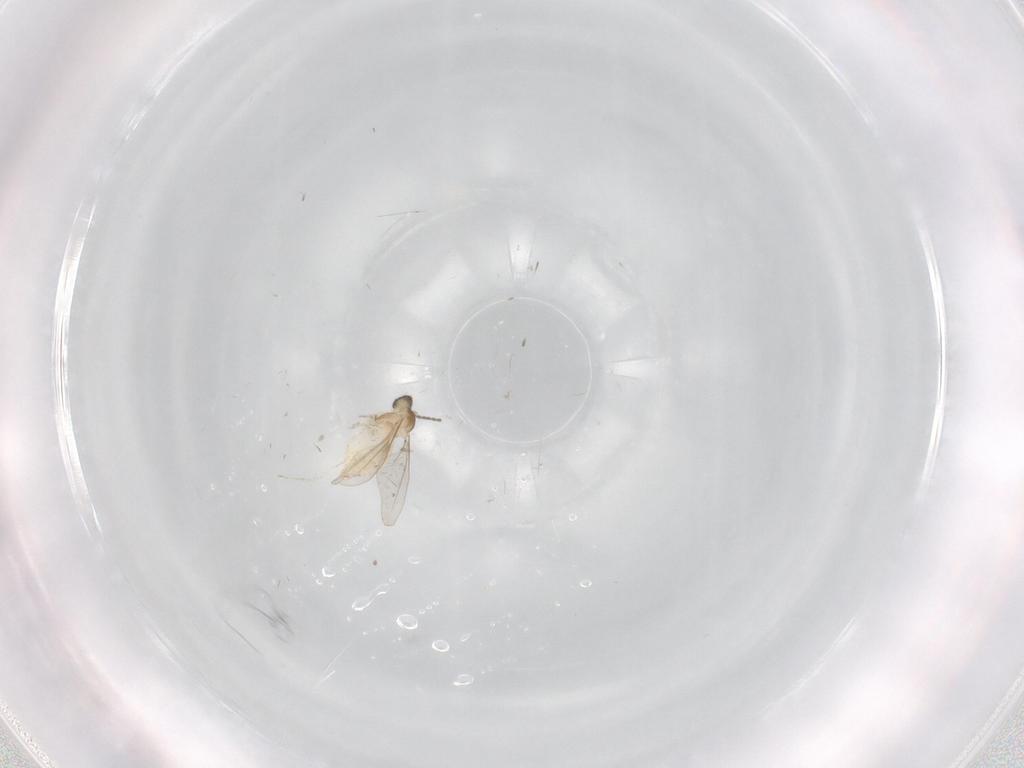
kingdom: Animalia
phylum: Arthropoda
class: Insecta
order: Diptera
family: Cecidomyiidae
